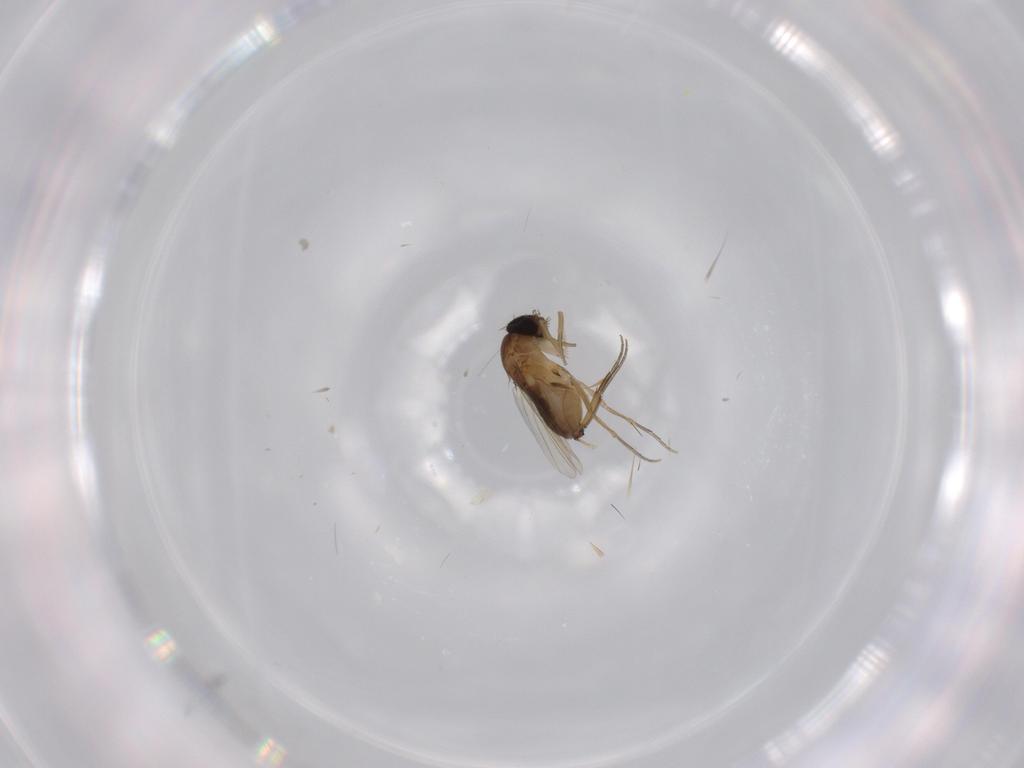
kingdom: Animalia
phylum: Arthropoda
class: Insecta
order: Diptera
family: Phoridae
